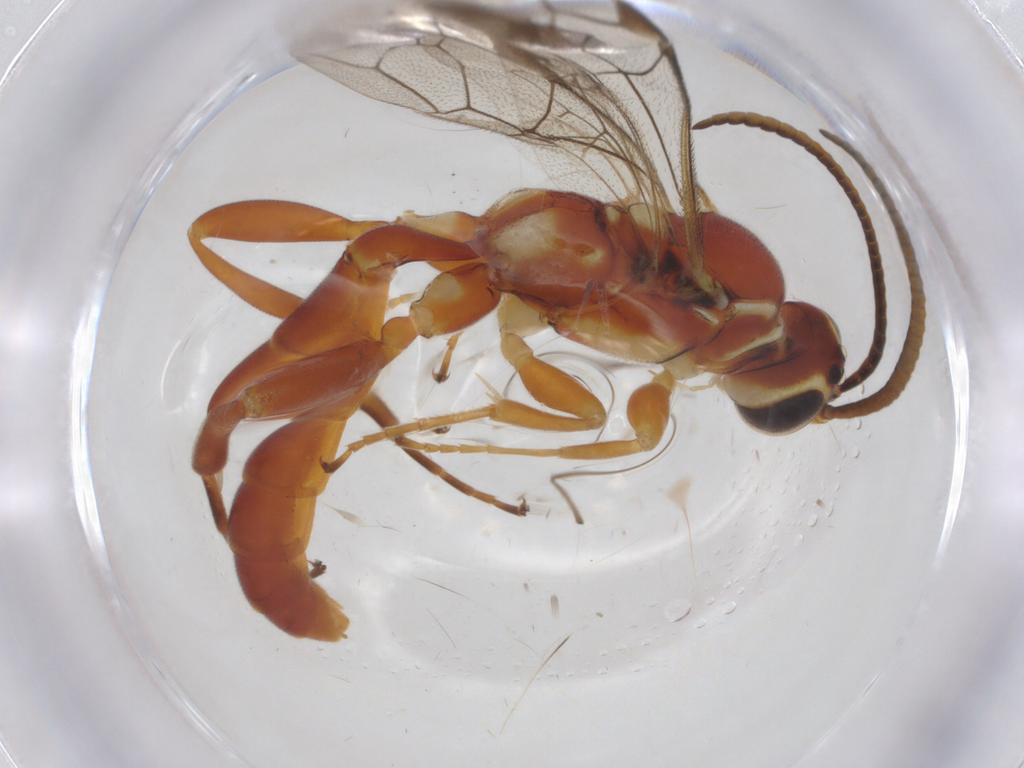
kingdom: Animalia
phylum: Arthropoda
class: Insecta
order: Hymenoptera
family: Ichneumonidae
